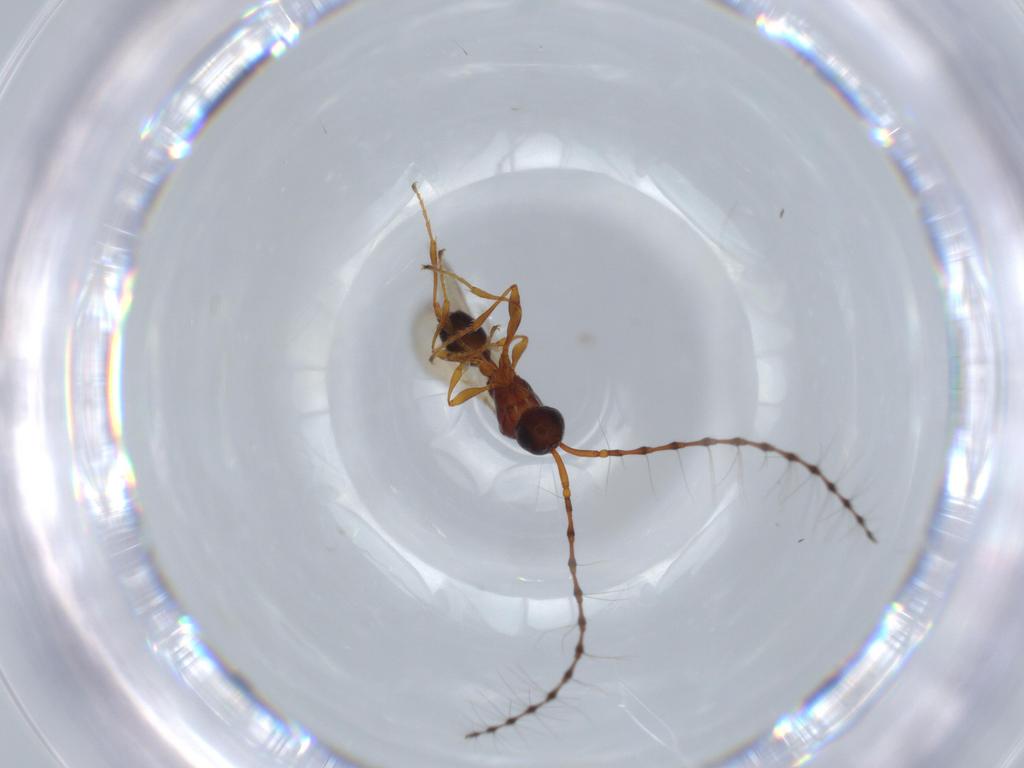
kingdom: Animalia
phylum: Arthropoda
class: Insecta
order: Hymenoptera
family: Diapriidae
